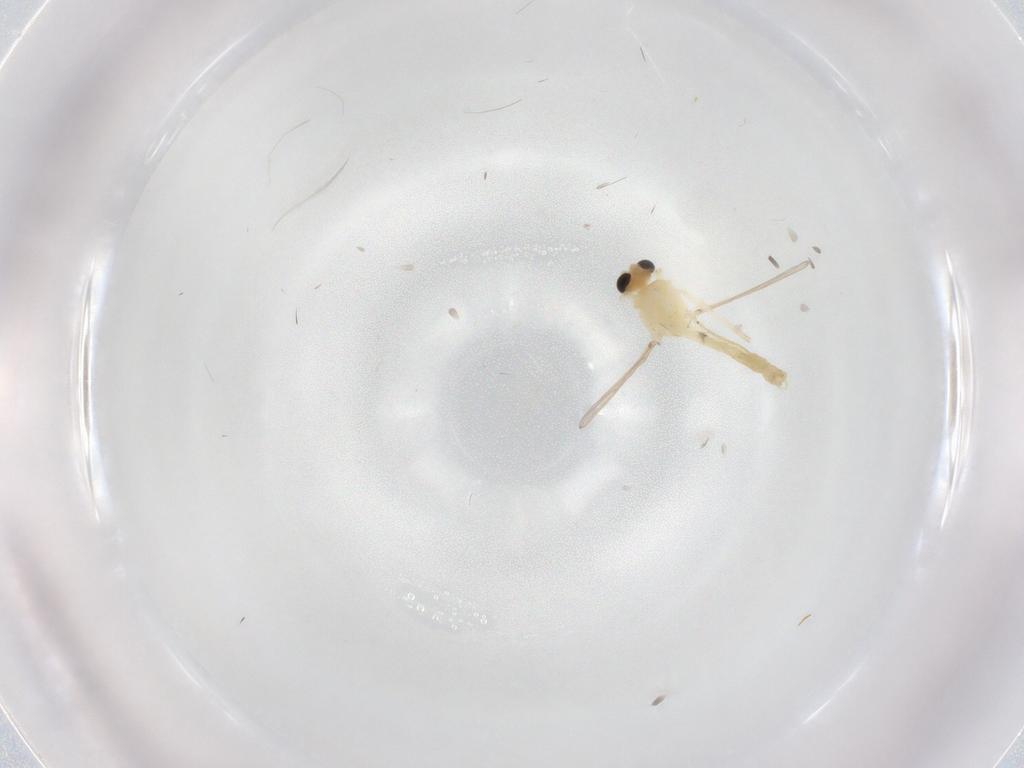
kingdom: Animalia
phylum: Arthropoda
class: Insecta
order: Diptera
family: Chironomidae
